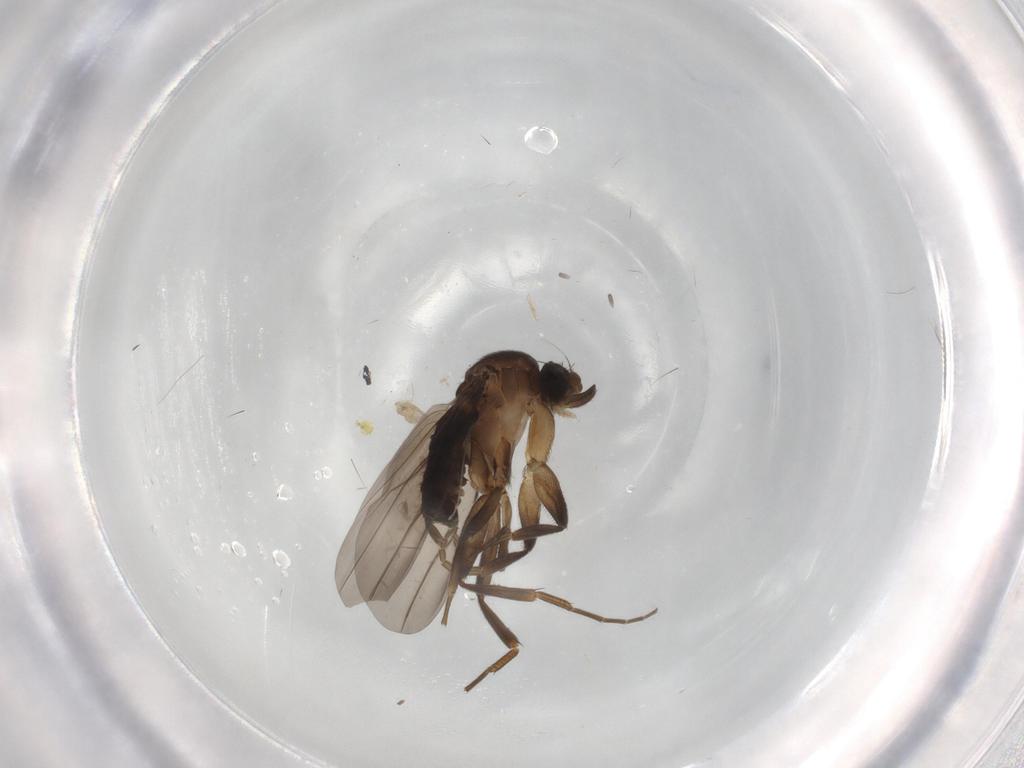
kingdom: Animalia
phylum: Arthropoda
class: Insecta
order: Diptera
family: Phoridae
